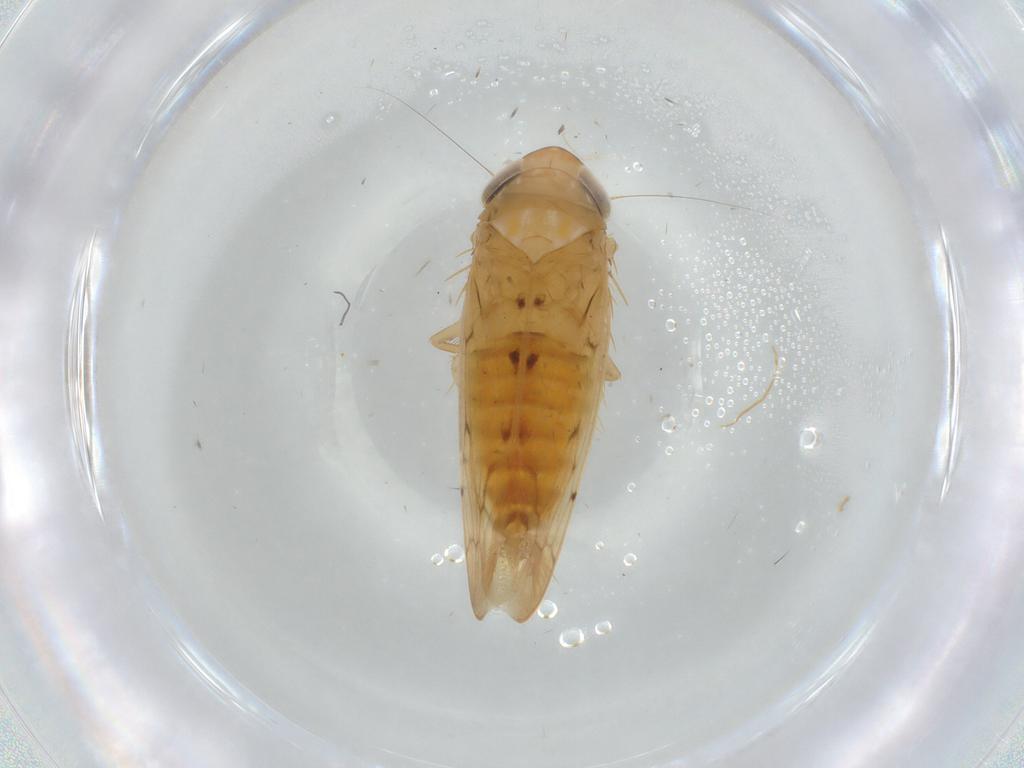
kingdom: Animalia
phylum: Arthropoda
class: Insecta
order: Hemiptera
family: Cicadellidae
